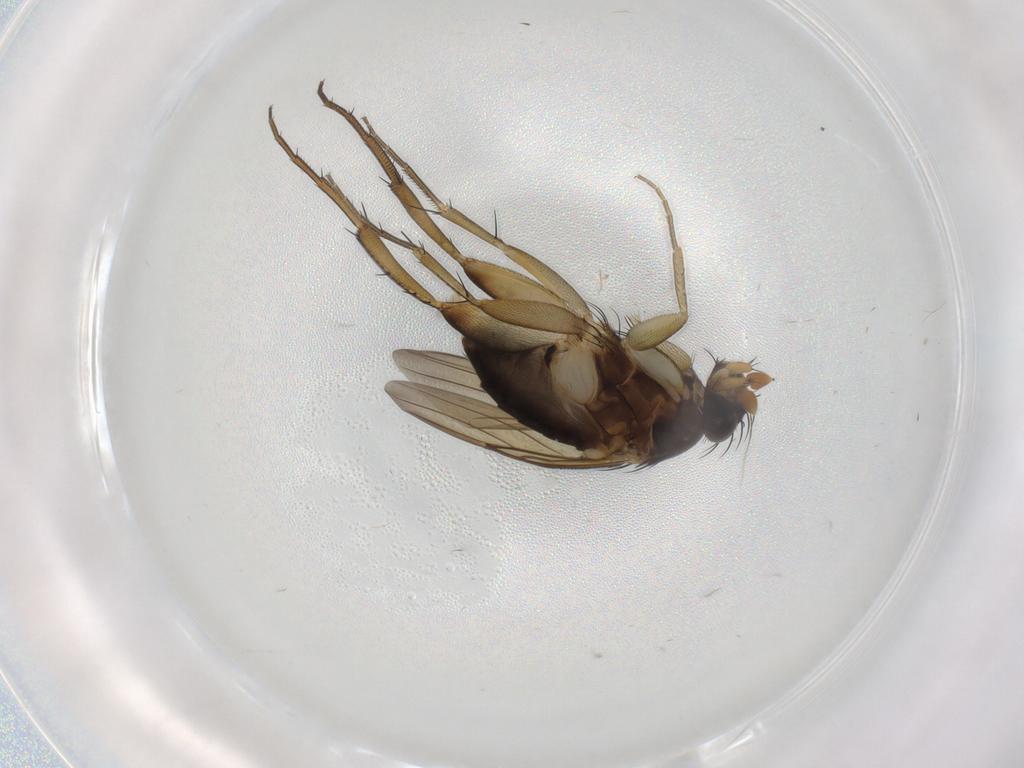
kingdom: Animalia
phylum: Arthropoda
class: Insecta
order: Diptera
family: Phoridae
